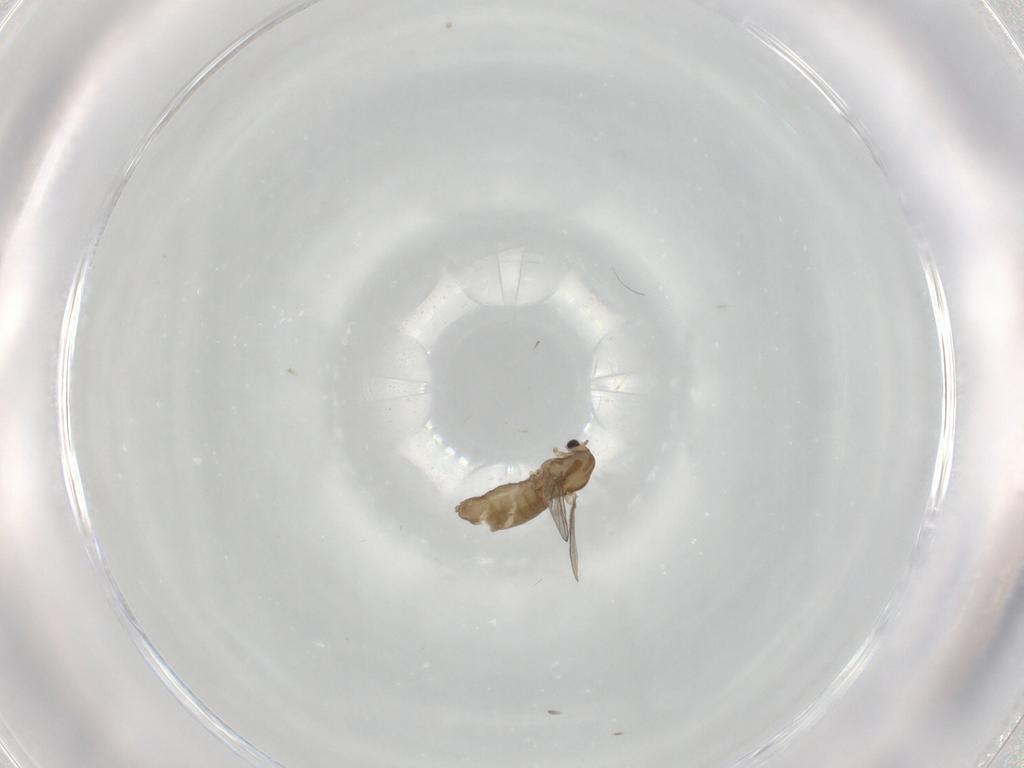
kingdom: Animalia
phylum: Arthropoda
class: Insecta
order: Diptera
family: Chironomidae
